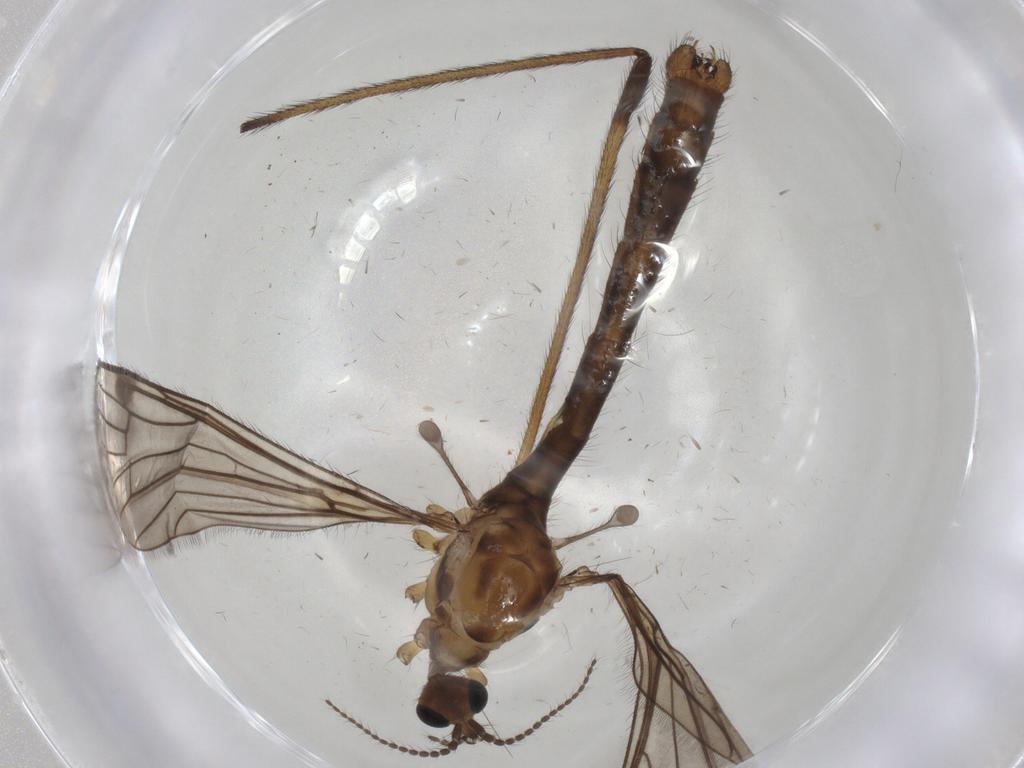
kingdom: Animalia
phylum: Arthropoda
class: Insecta
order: Diptera
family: Limoniidae
